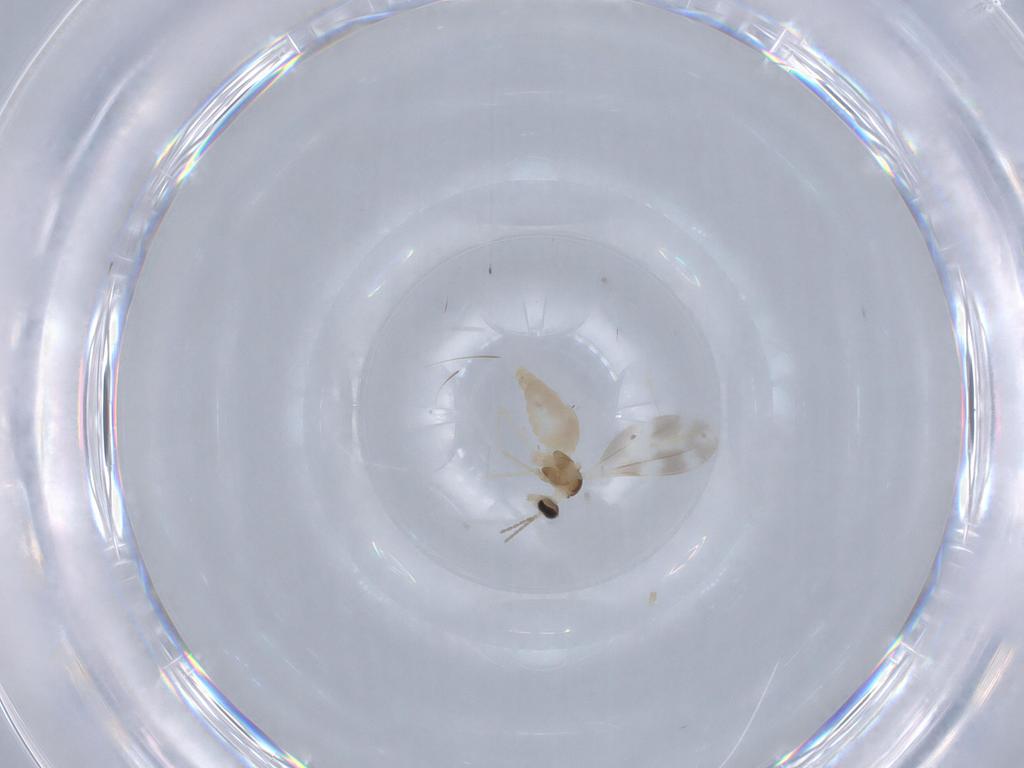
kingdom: Animalia
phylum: Arthropoda
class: Insecta
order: Diptera
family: Cecidomyiidae
